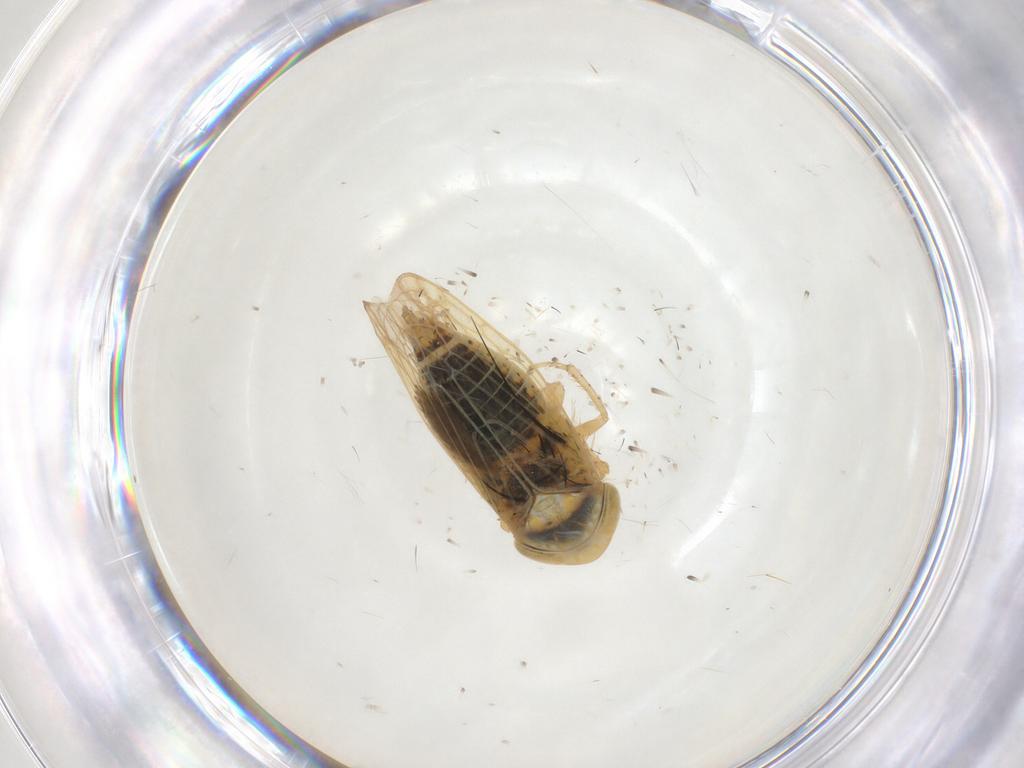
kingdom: Animalia
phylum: Arthropoda
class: Insecta
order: Hemiptera
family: Cicadellidae
